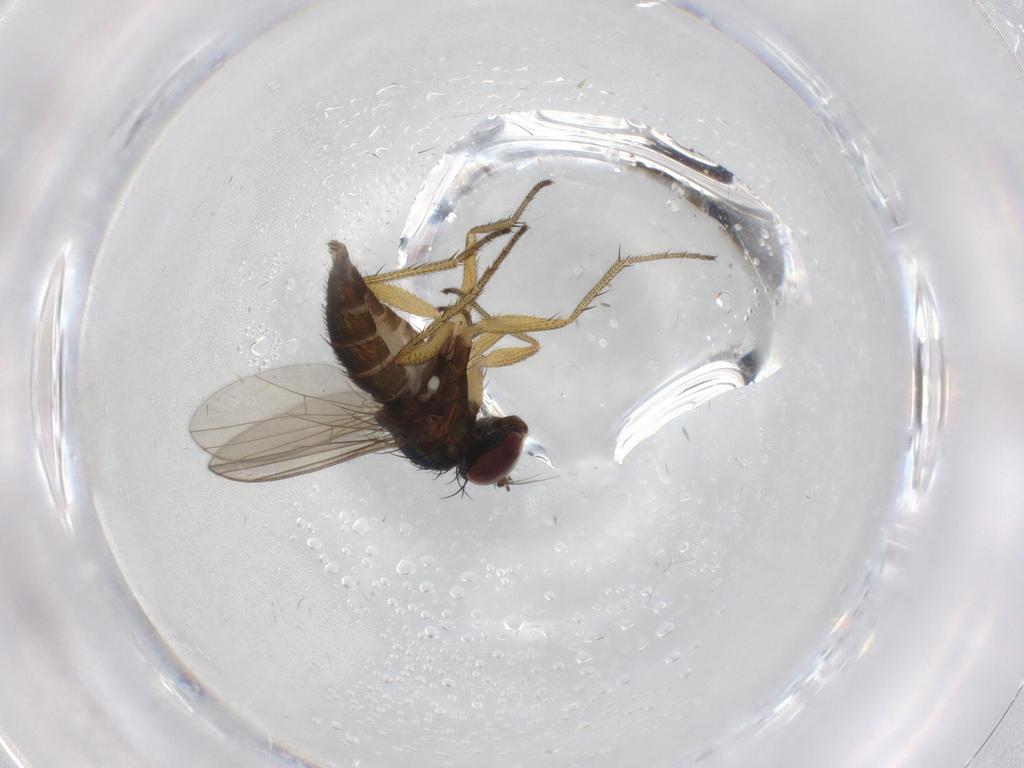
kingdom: Animalia
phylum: Arthropoda
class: Insecta
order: Diptera
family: Dolichopodidae
